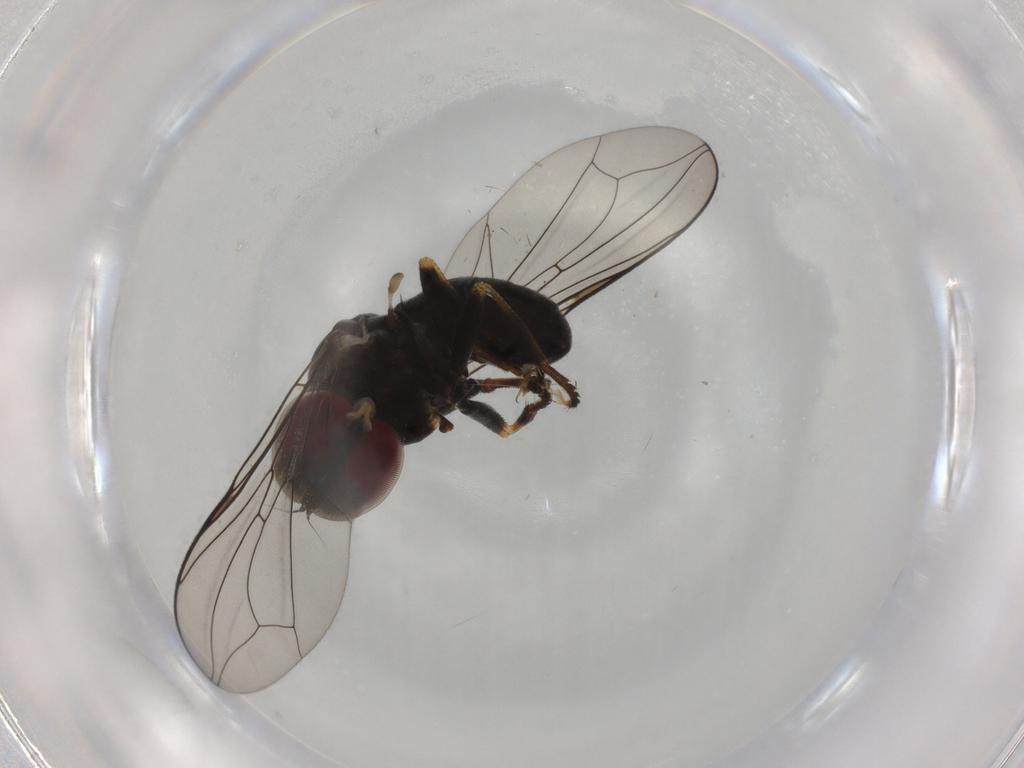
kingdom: Animalia
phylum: Arthropoda
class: Insecta
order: Diptera
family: Pipunculidae
